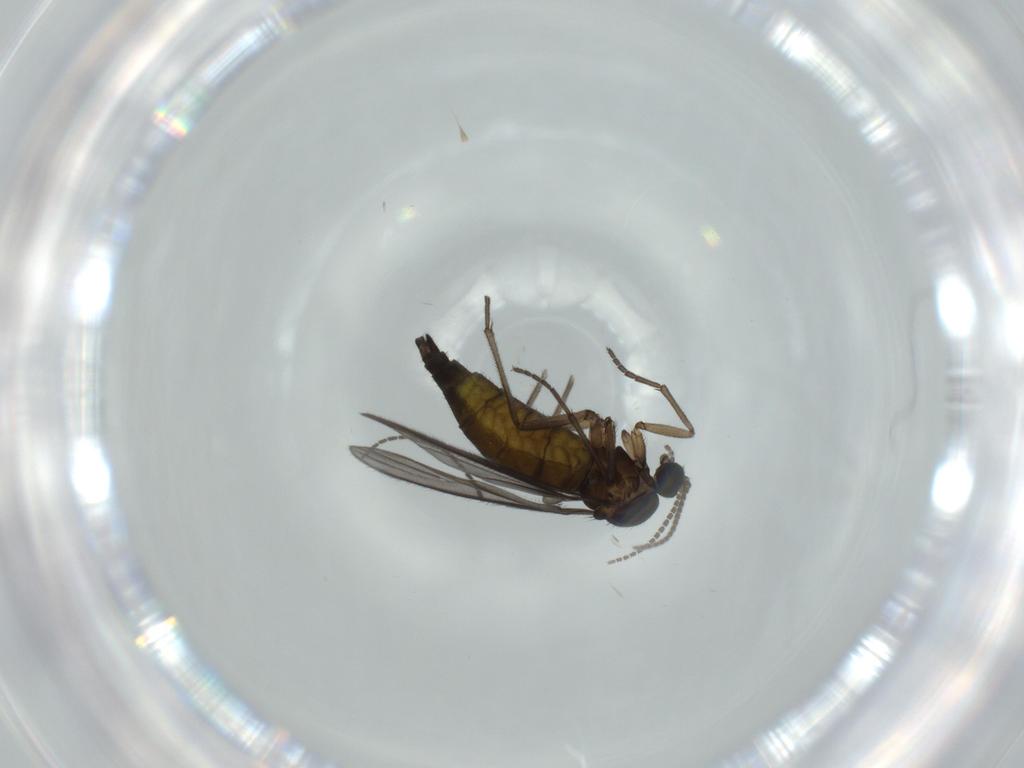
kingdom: Animalia
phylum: Arthropoda
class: Insecta
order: Diptera
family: Sciaridae
